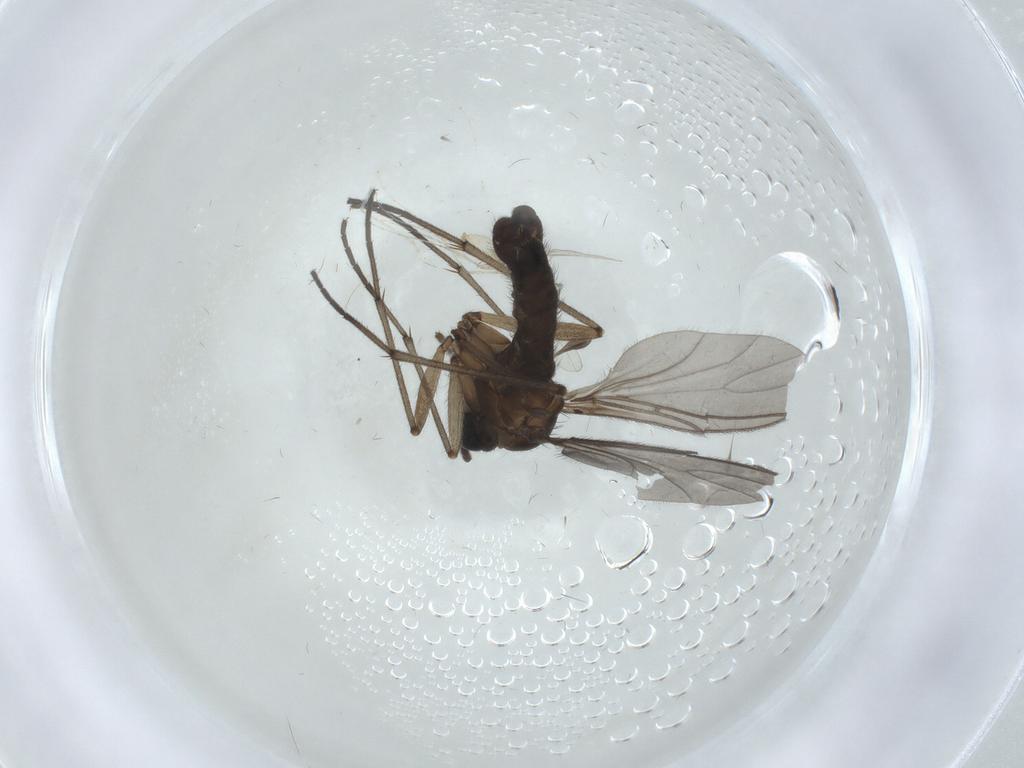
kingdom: Animalia
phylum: Arthropoda
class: Insecta
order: Diptera
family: Sciaridae
